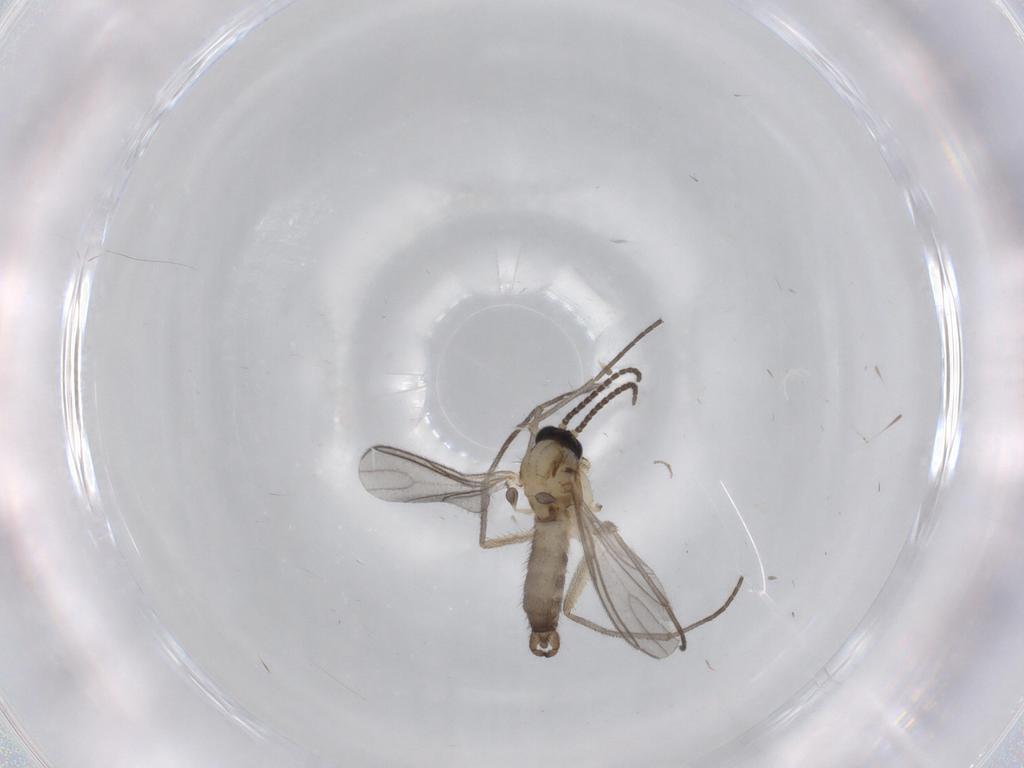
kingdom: Animalia
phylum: Arthropoda
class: Insecta
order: Diptera
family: Sciaridae
